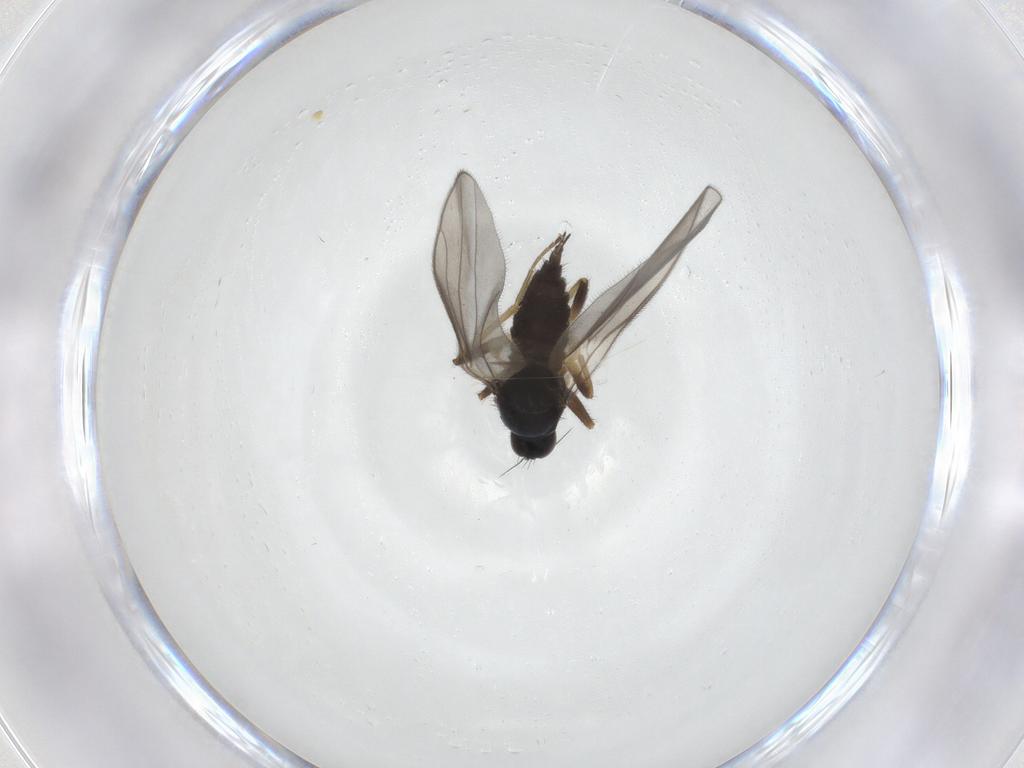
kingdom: Animalia
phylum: Arthropoda
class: Insecta
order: Diptera
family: Hybotidae
